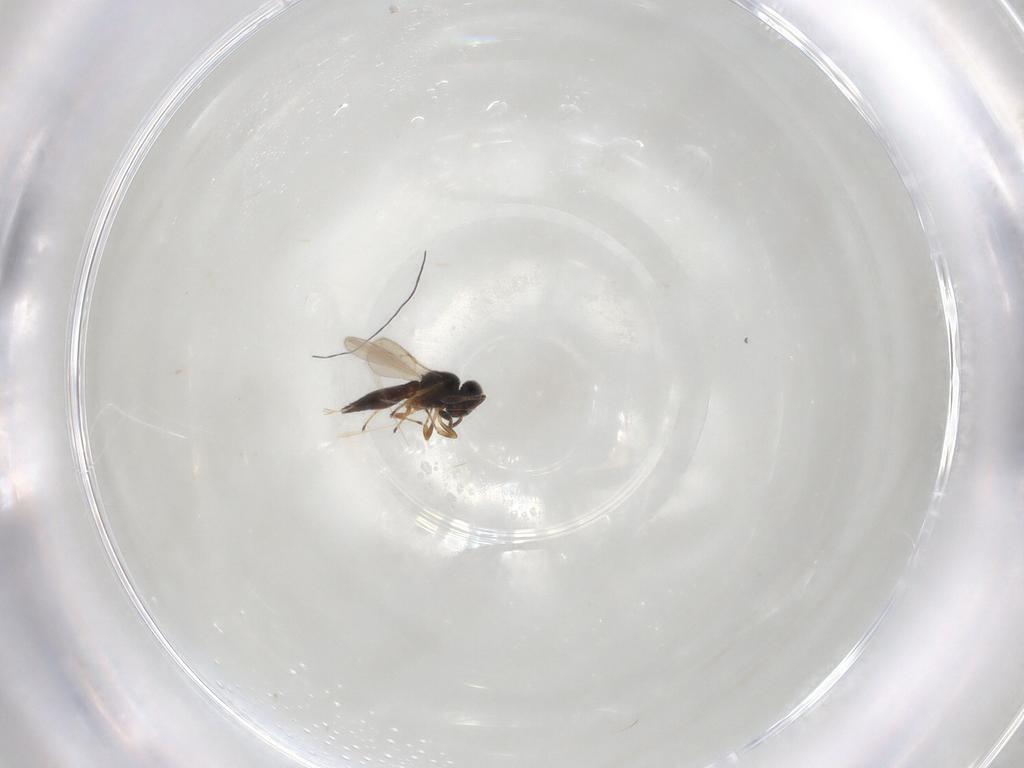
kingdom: Animalia
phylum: Arthropoda
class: Insecta
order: Hymenoptera
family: Scelionidae
